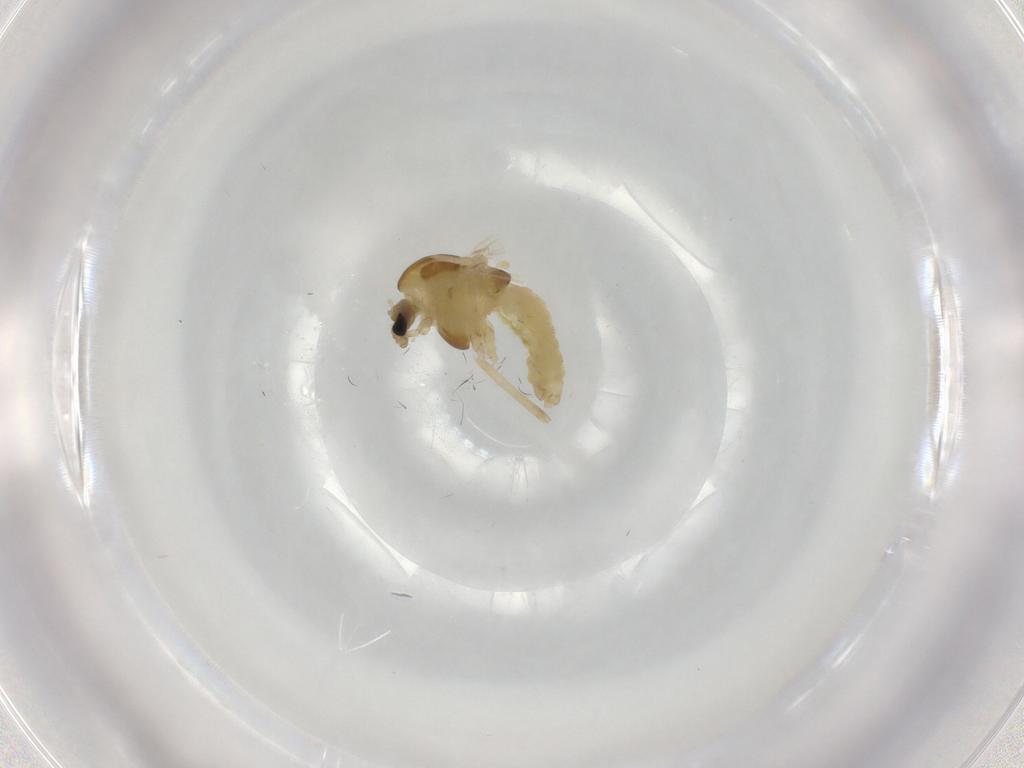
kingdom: Animalia
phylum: Arthropoda
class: Insecta
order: Diptera
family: Chironomidae
